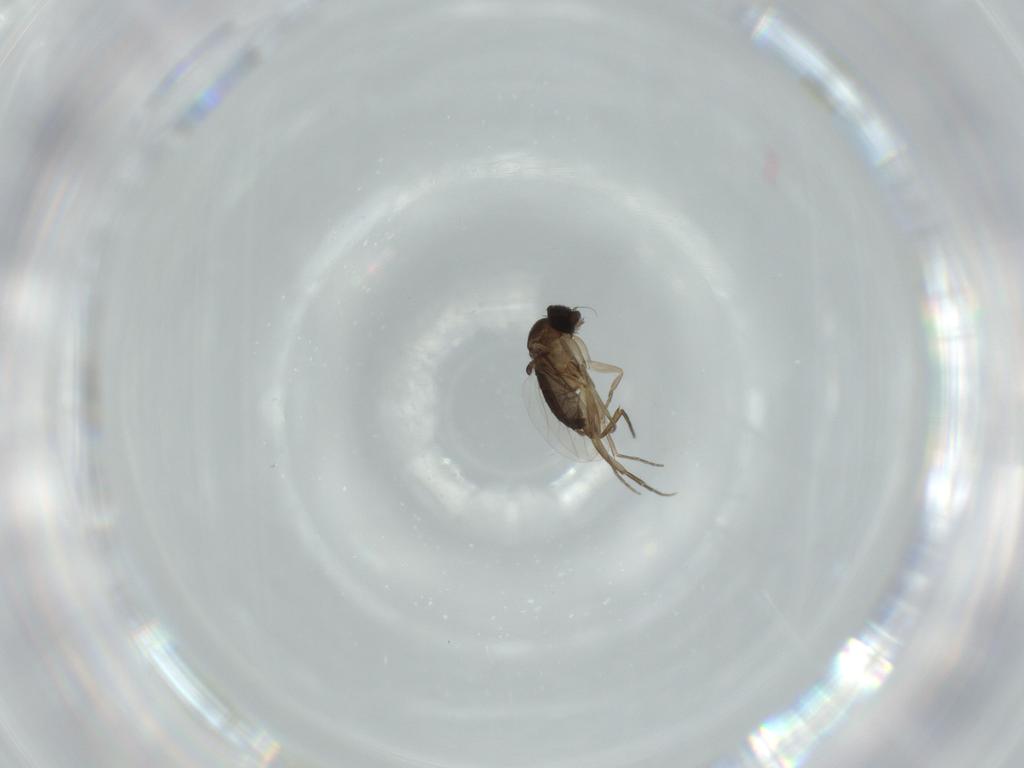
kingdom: Animalia
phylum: Arthropoda
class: Insecta
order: Diptera
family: Phoridae
